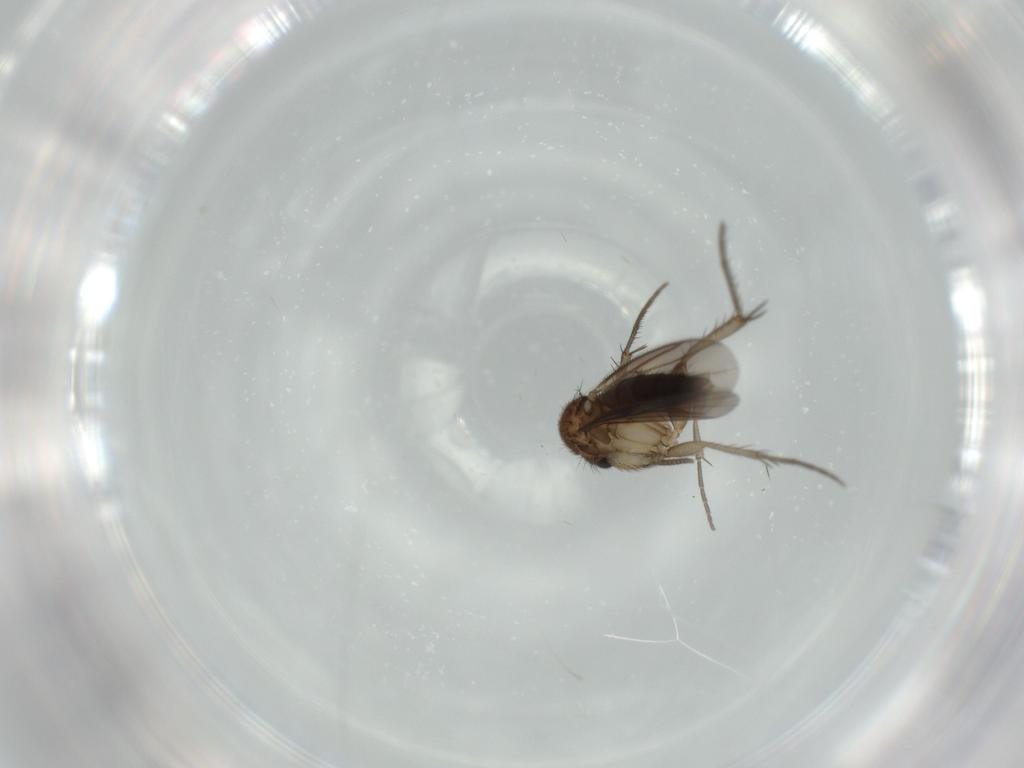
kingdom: Animalia
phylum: Arthropoda
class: Insecta
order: Diptera
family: Mycetophilidae
